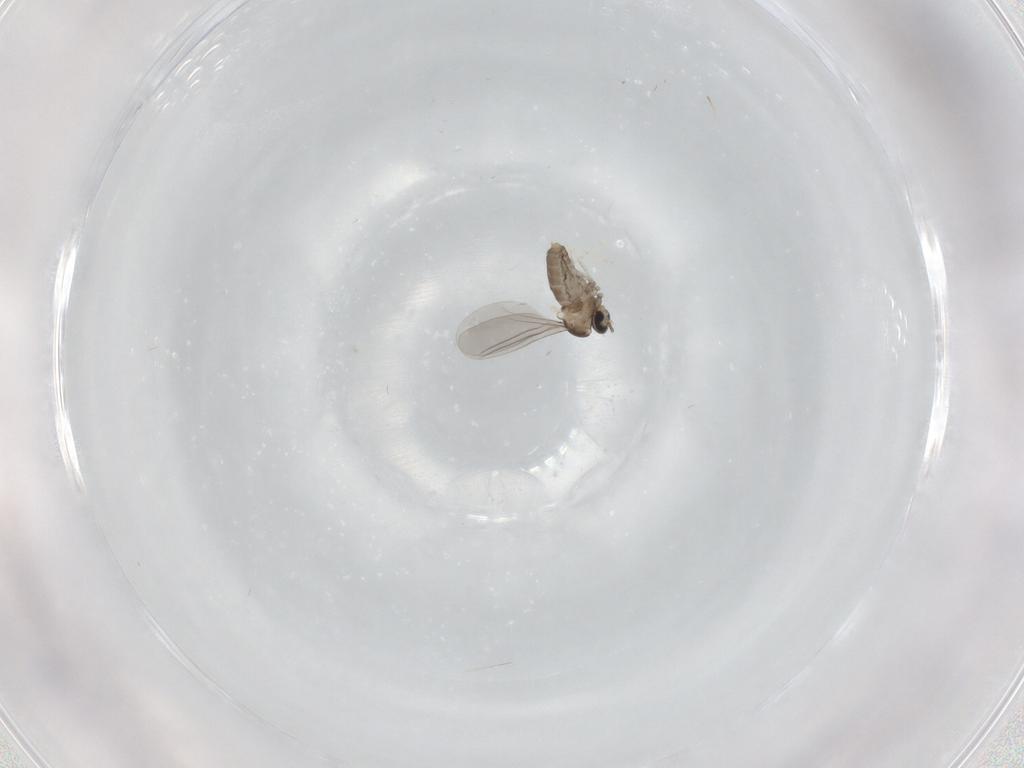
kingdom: Animalia
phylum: Arthropoda
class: Insecta
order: Diptera
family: Cecidomyiidae
